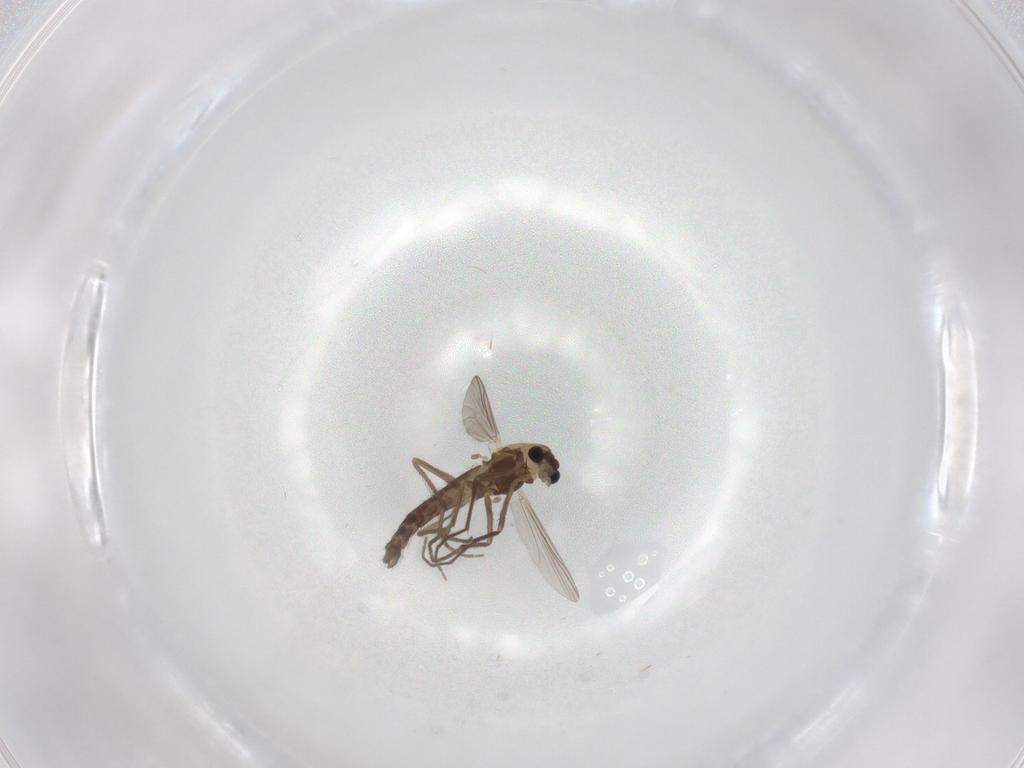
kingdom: Animalia
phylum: Arthropoda
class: Insecta
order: Diptera
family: Chironomidae
